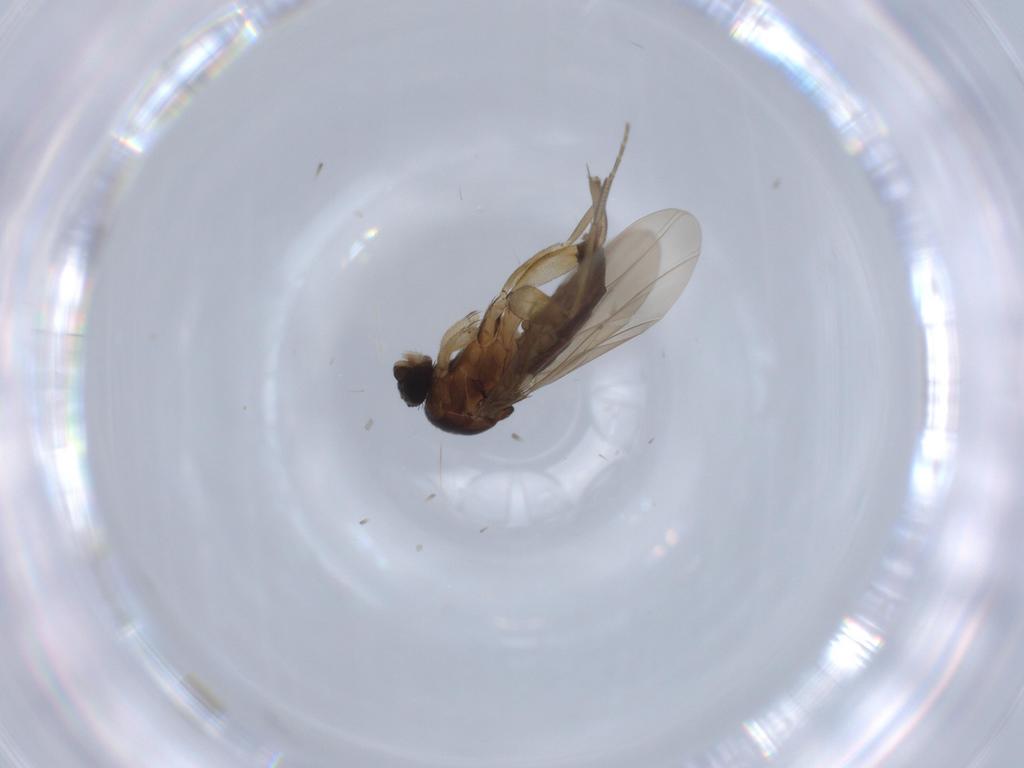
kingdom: Animalia
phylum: Arthropoda
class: Insecta
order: Diptera
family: Phoridae
